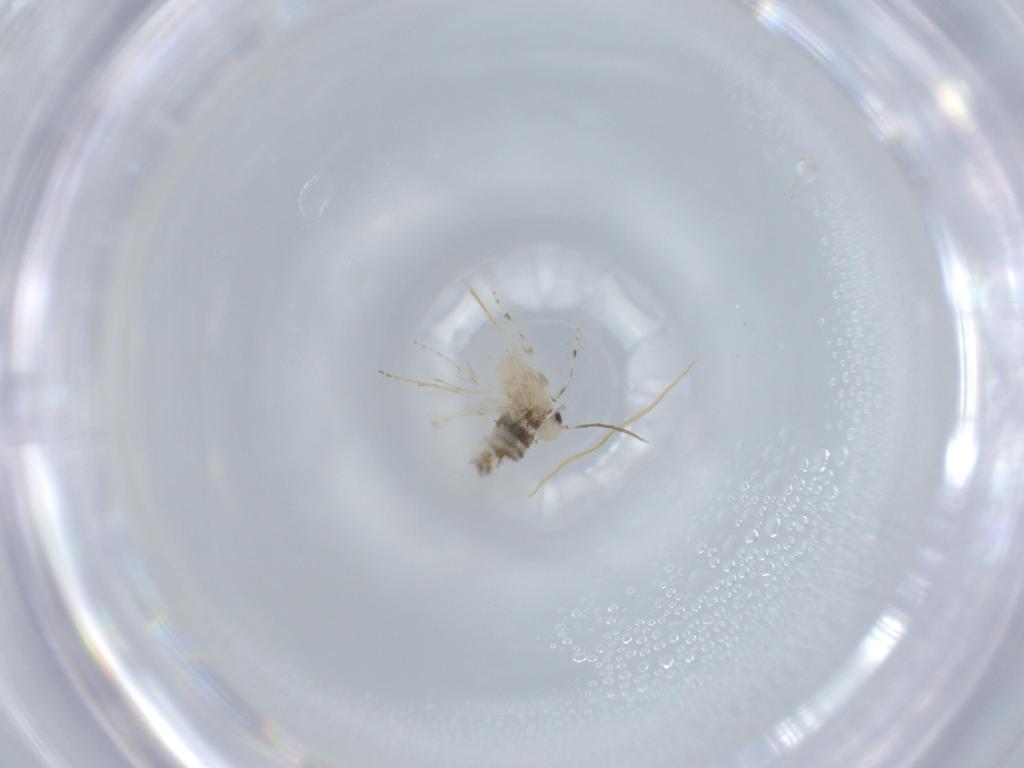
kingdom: Animalia
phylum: Arthropoda
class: Insecta
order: Lepidoptera
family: Gracillariidae
